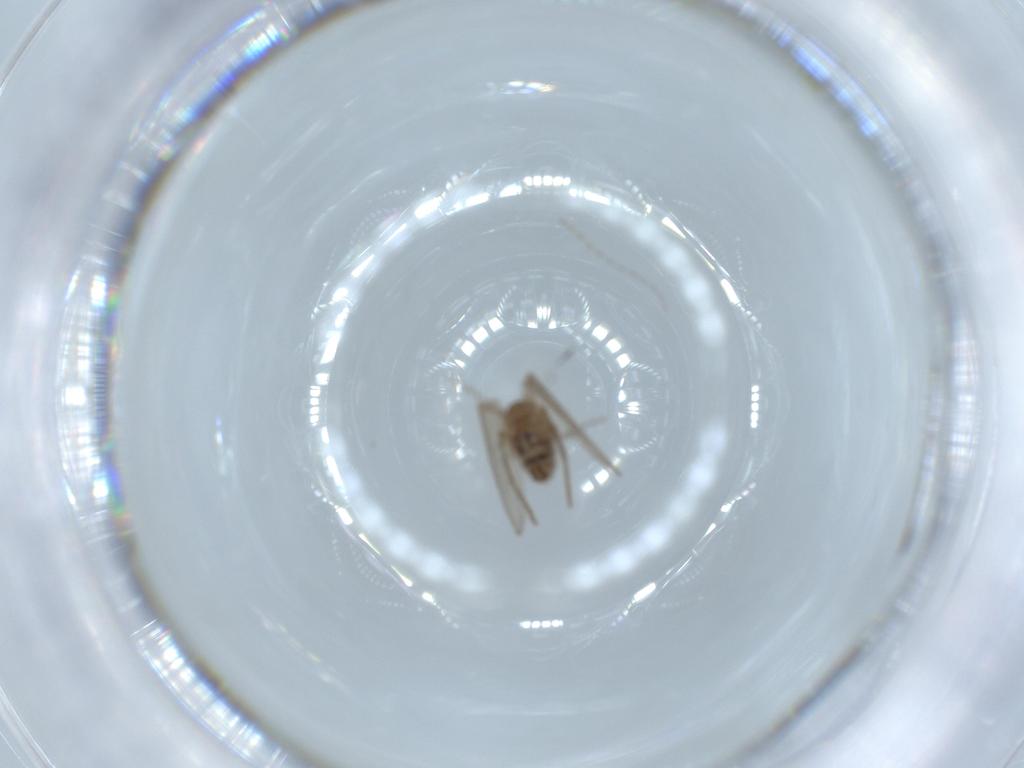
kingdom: Animalia
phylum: Arthropoda
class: Insecta
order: Diptera
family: Psychodidae
